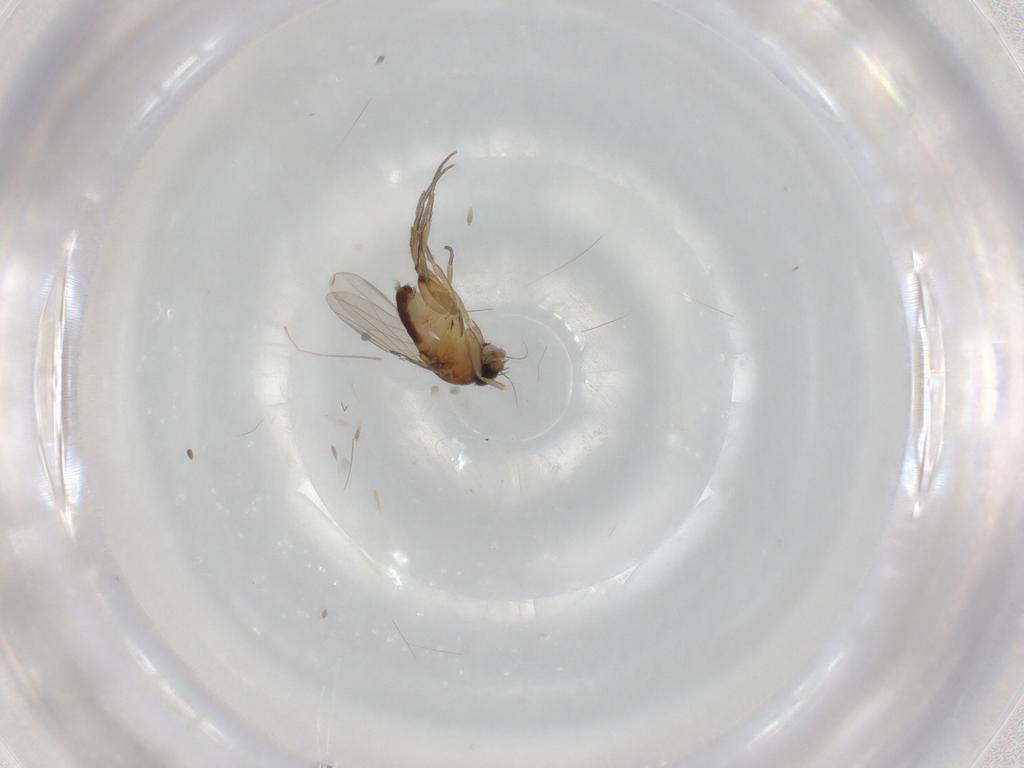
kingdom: Animalia
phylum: Arthropoda
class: Insecta
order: Diptera
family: Phoridae
